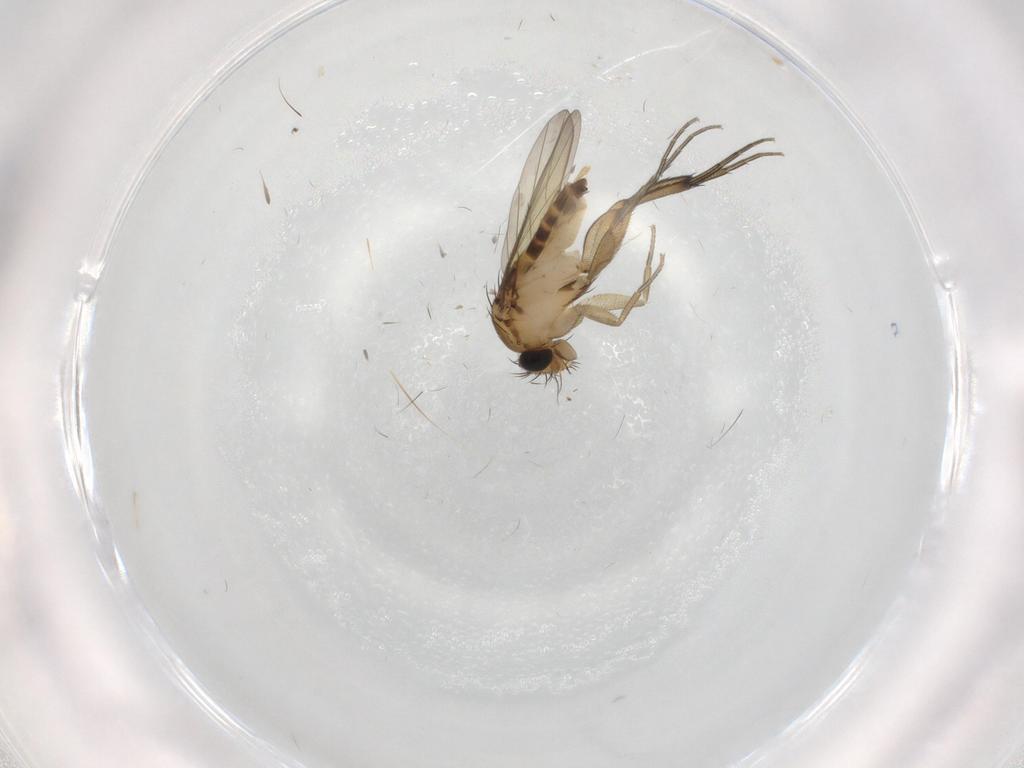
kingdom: Animalia
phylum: Arthropoda
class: Insecta
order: Diptera
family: Phoridae
